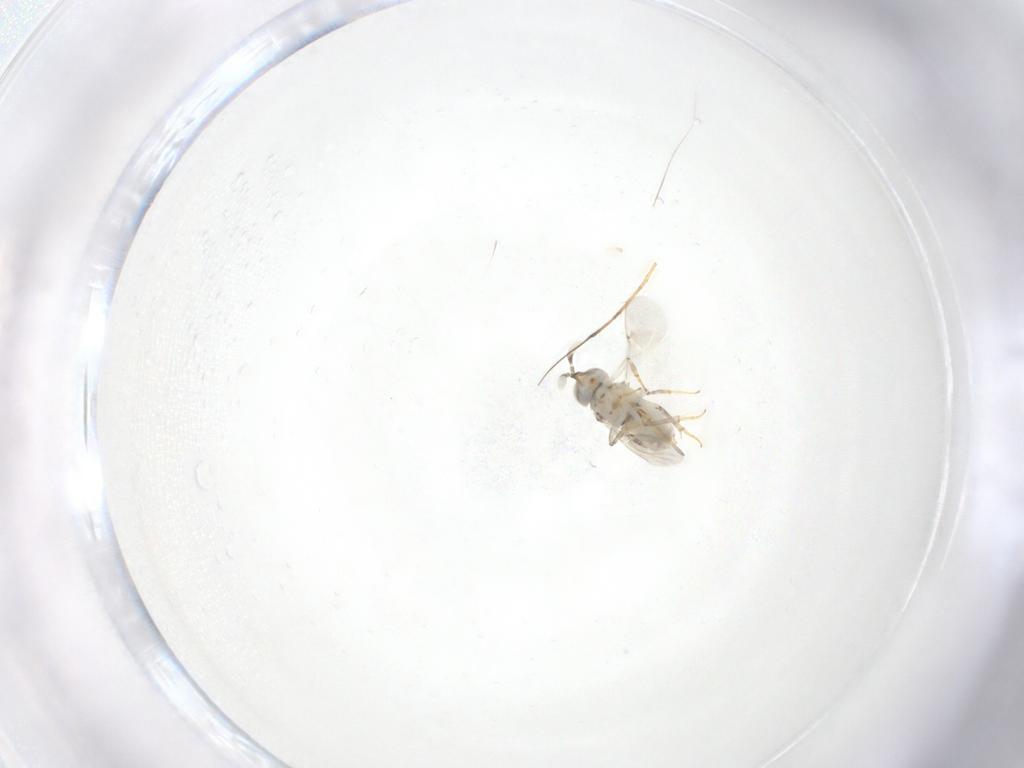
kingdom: Animalia
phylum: Arthropoda
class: Insecta
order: Hymenoptera
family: Encyrtidae
